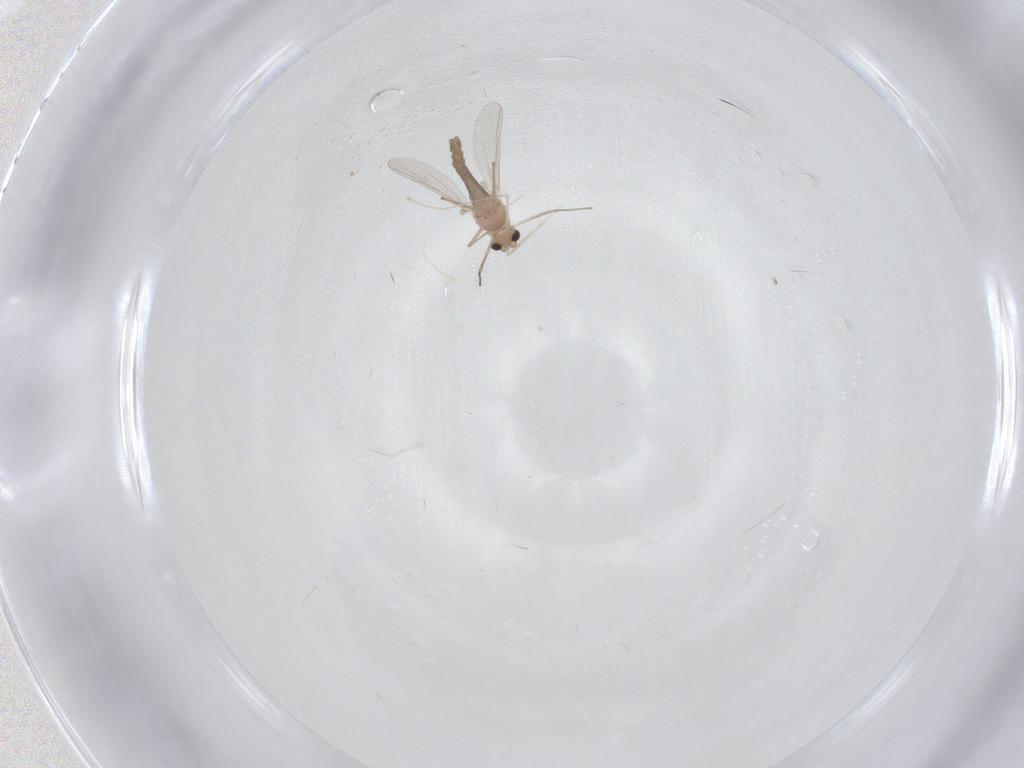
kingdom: Animalia
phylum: Arthropoda
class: Insecta
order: Diptera
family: Chironomidae
